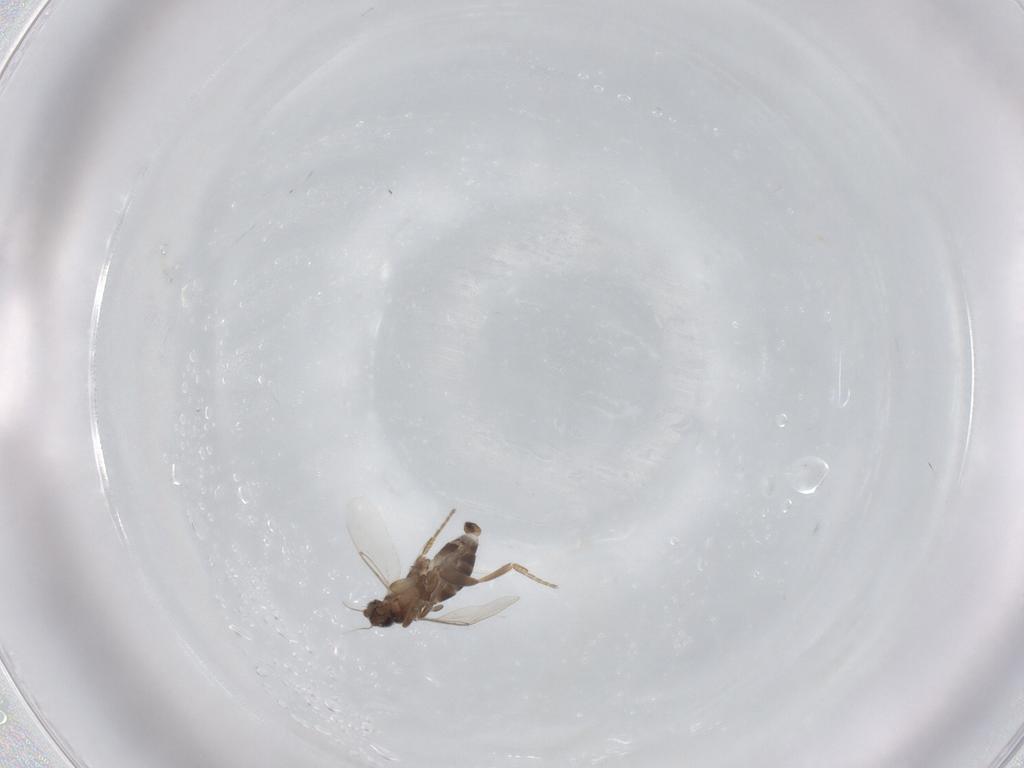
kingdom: Animalia
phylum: Arthropoda
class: Insecta
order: Diptera
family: Phoridae
